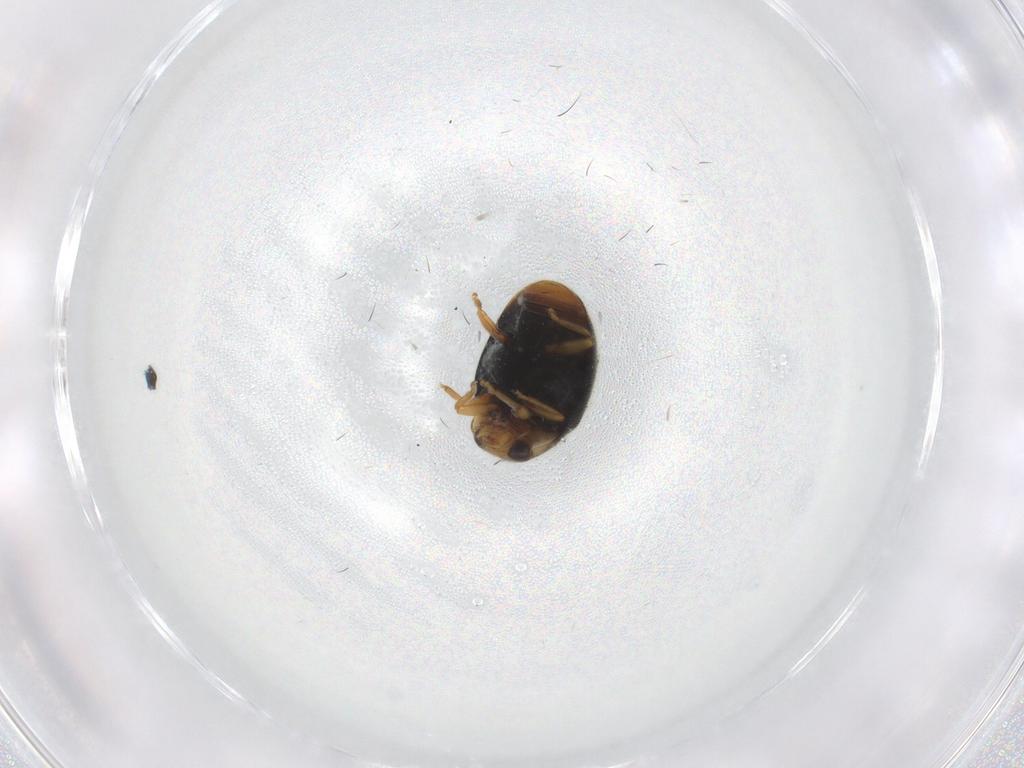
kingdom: Animalia
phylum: Arthropoda
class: Insecta
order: Coleoptera
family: Coccinellidae
